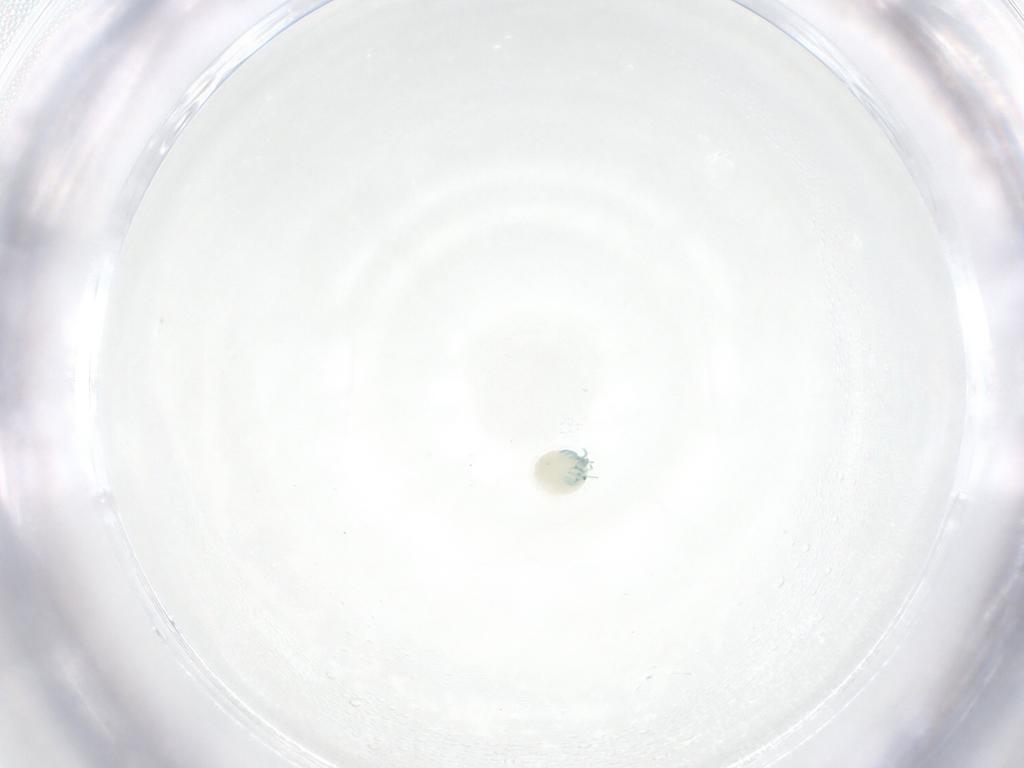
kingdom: Animalia
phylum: Arthropoda
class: Arachnida
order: Trombidiformes
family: Arrenuridae
